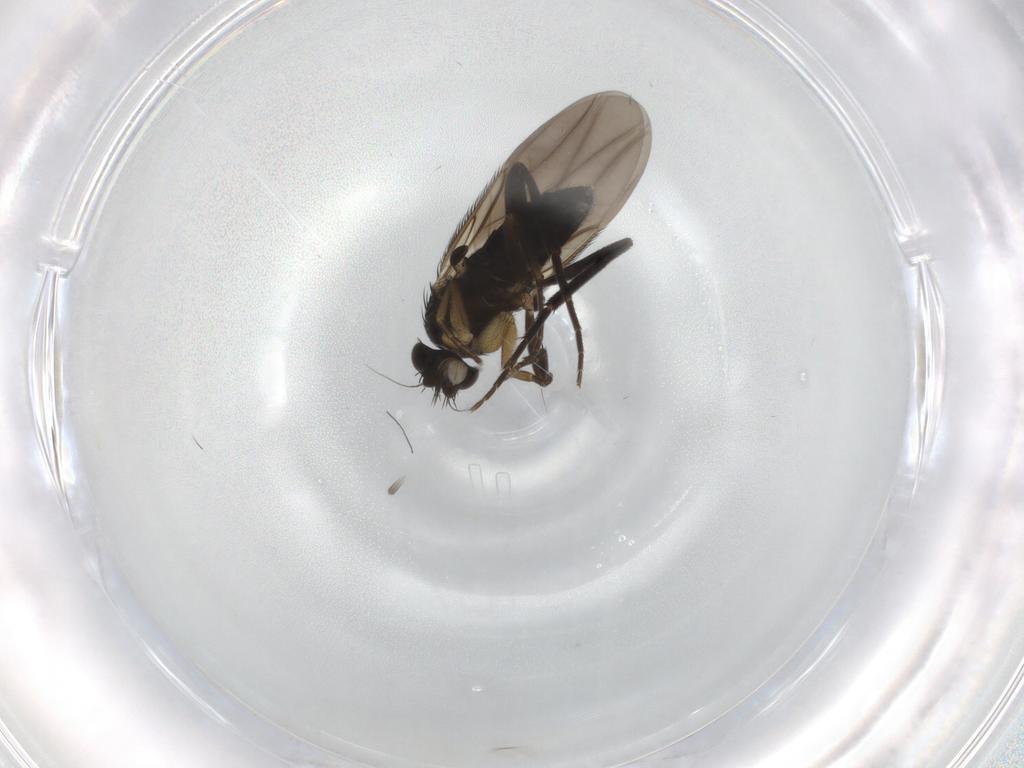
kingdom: Animalia
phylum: Arthropoda
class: Insecta
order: Diptera
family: Phoridae
